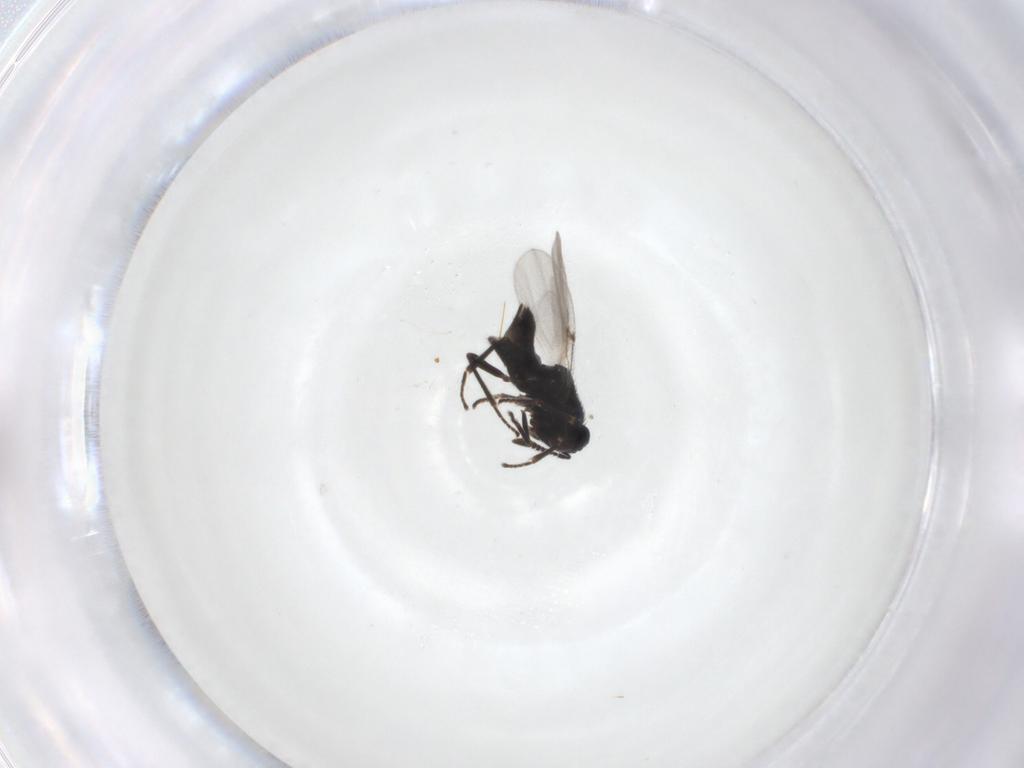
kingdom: Animalia
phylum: Arthropoda
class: Insecta
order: Hymenoptera
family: Encyrtidae
